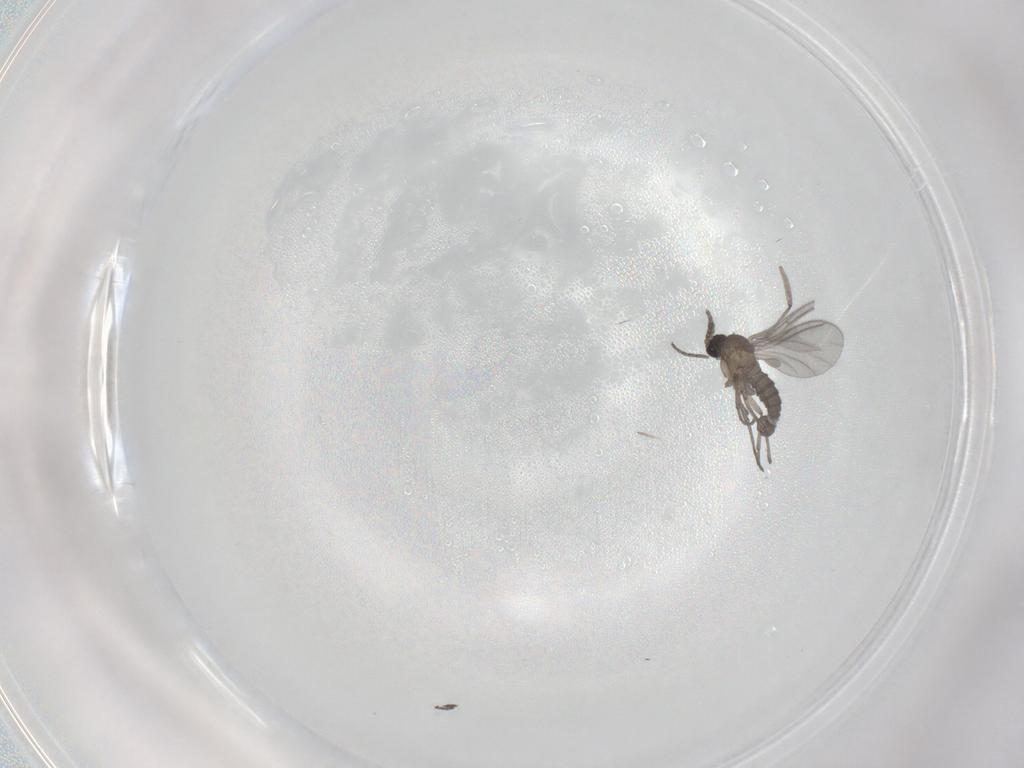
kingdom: Animalia
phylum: Arthropoda
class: Insecta
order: Diptera
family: Sciaridae
